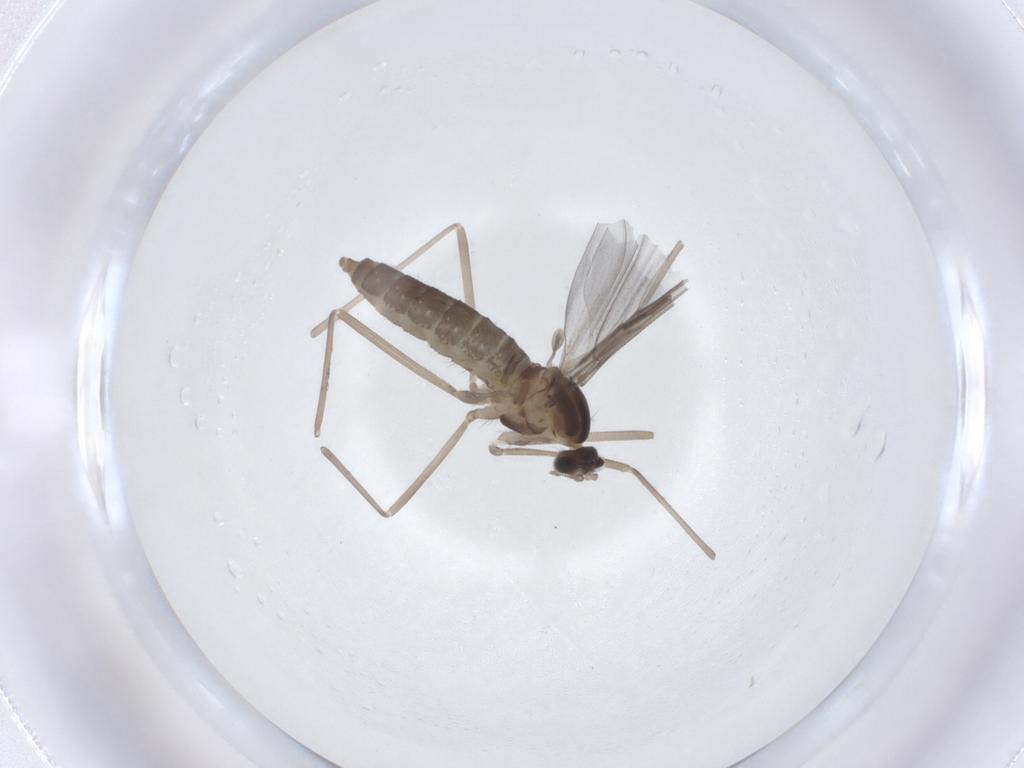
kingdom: Animalia
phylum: Arthropoda
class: Insecta
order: Diptera
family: Cecidomyiidae
